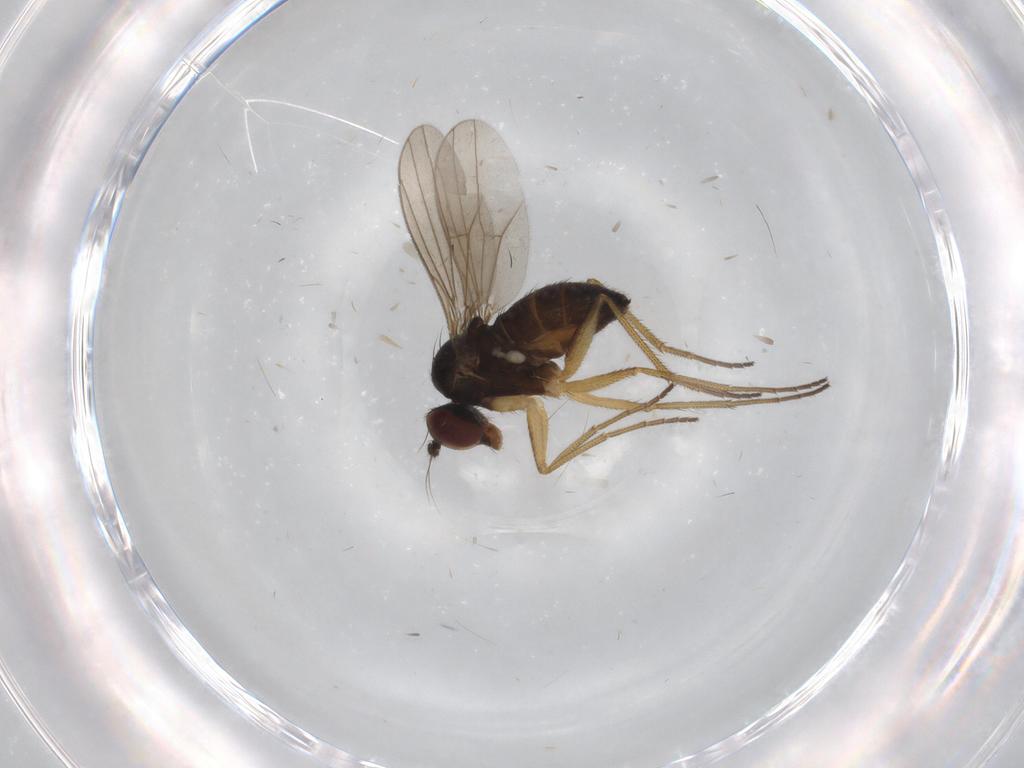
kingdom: Animalia
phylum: Arthropoda
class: Insecta
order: Diptera
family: Dolichopodidae
